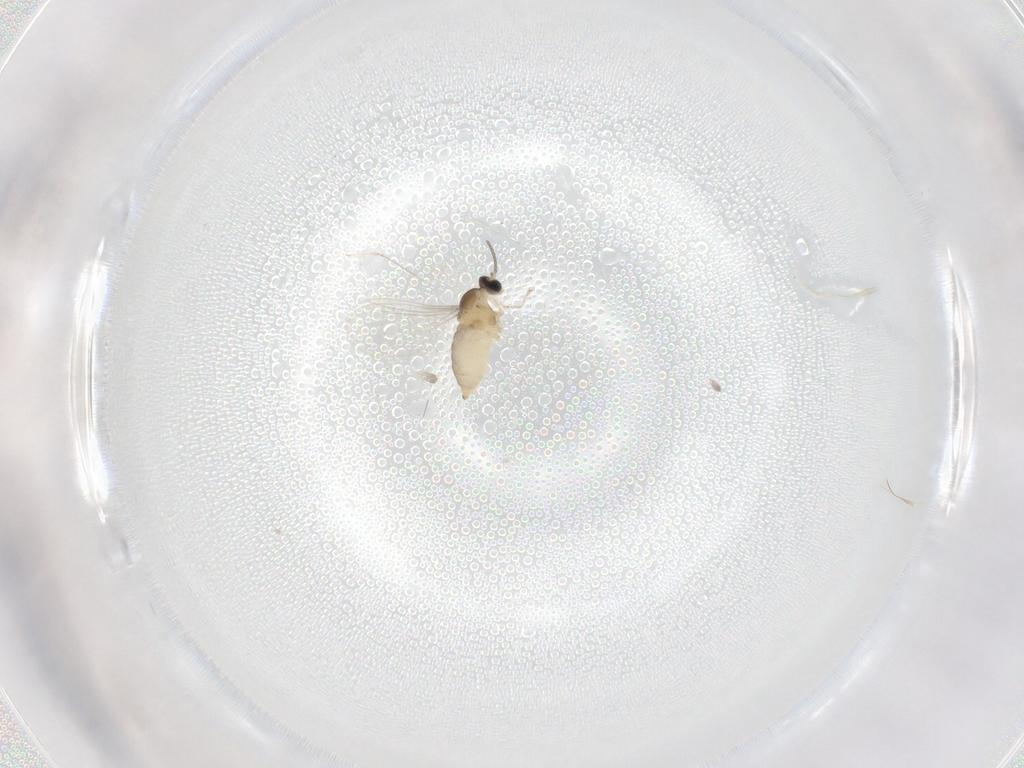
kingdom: Animalia
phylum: Arthropoda
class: Insecta
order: Diptera
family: Cecidomyiidae
